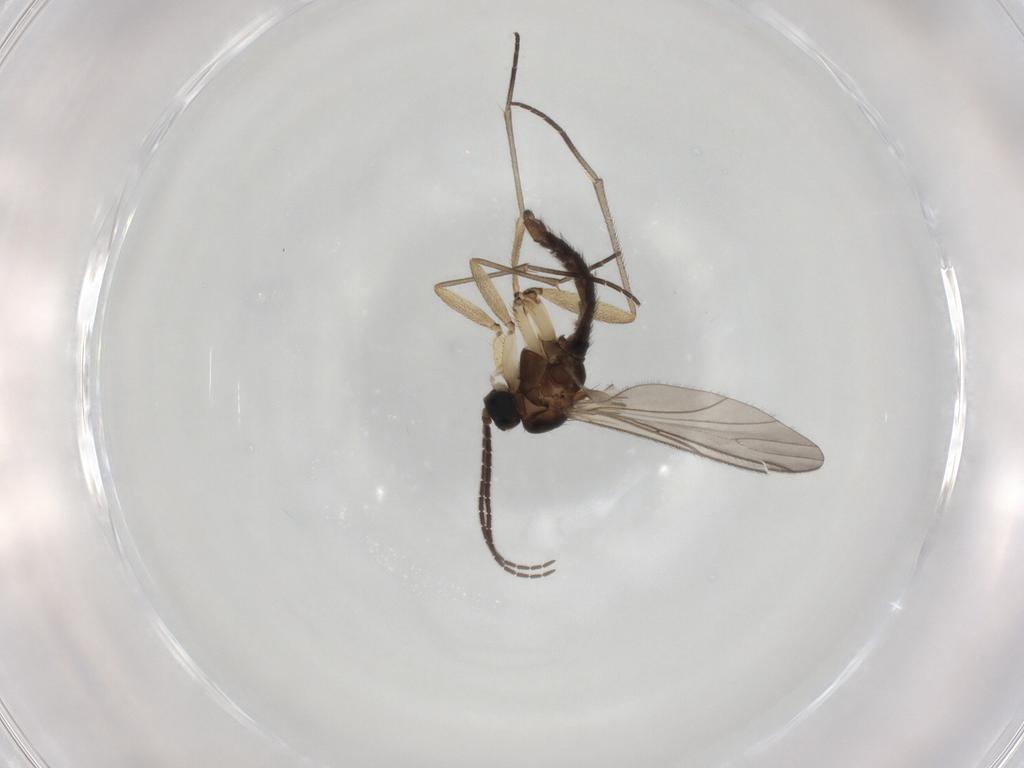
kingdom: Animalia
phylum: Arthropoda
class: Insecta
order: Diptera
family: Sciaridae
